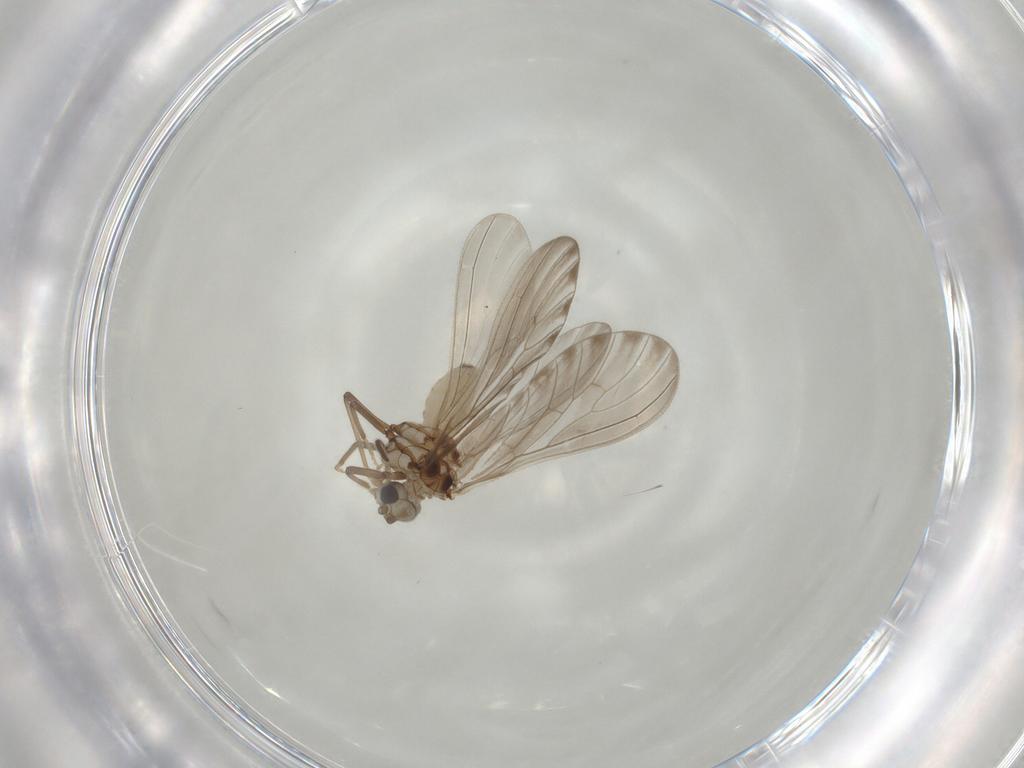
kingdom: Animalia
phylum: Arthropoda
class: Insecta
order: Neuroptera
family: Coniopterygidae
